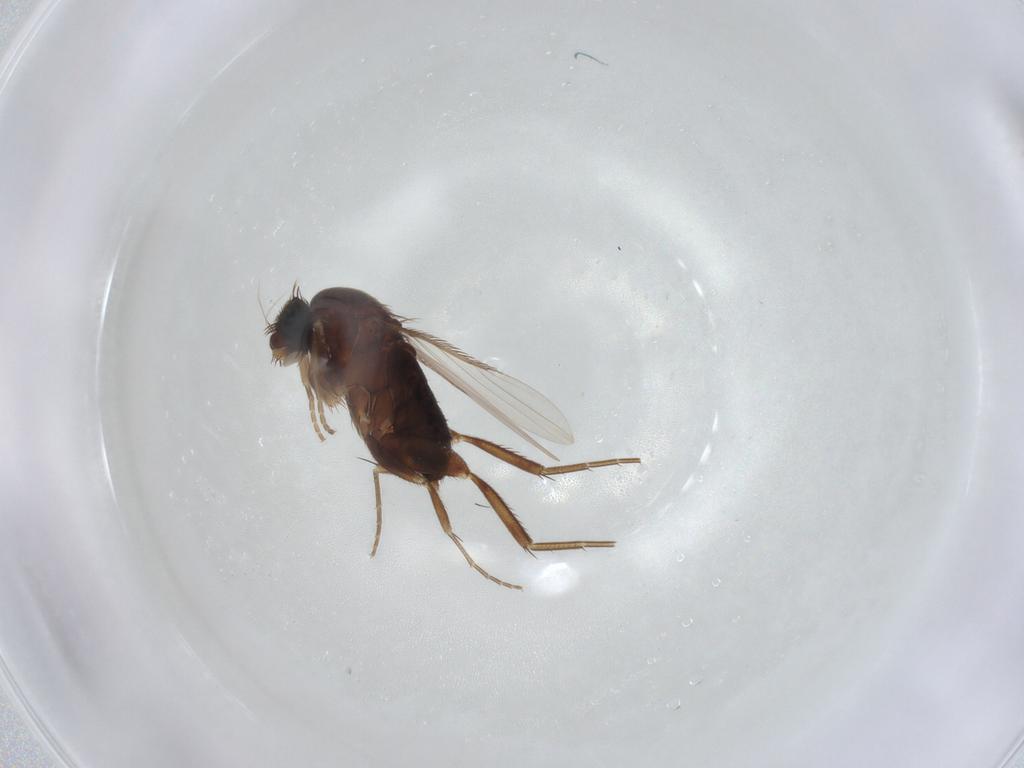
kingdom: Animalia
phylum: Arthropoda
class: Insecta
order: Diptera
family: Phoridae
